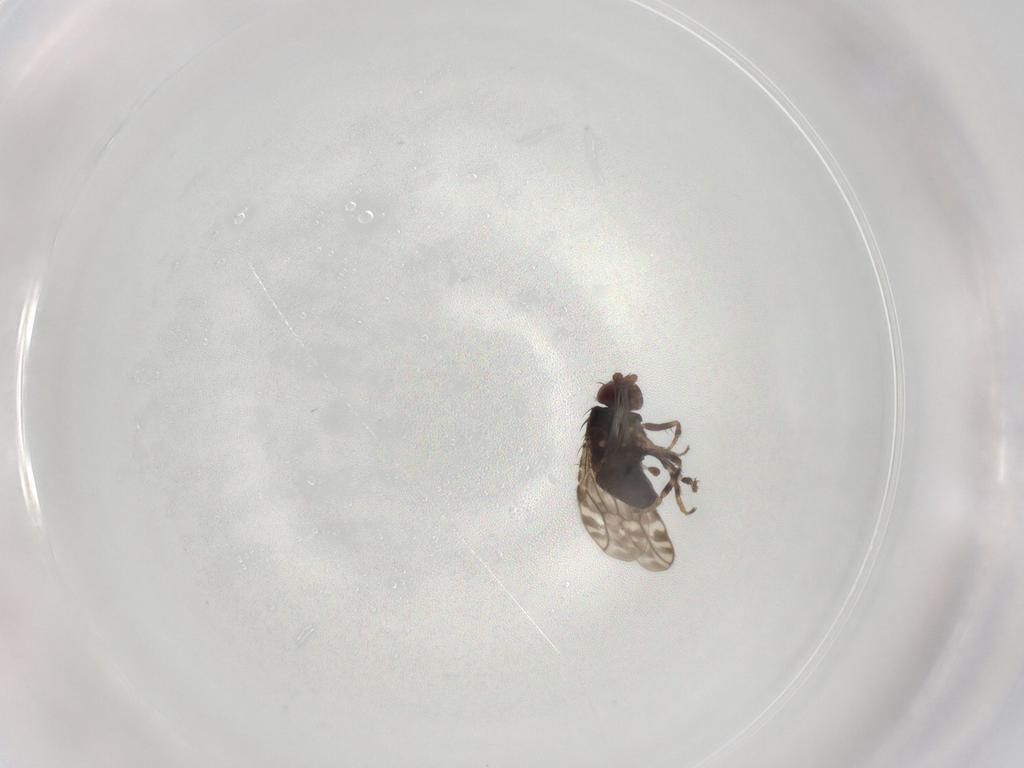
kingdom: Animalia
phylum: Arthropoda
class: Insecta
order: Diptera
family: Sphaeroceridae
